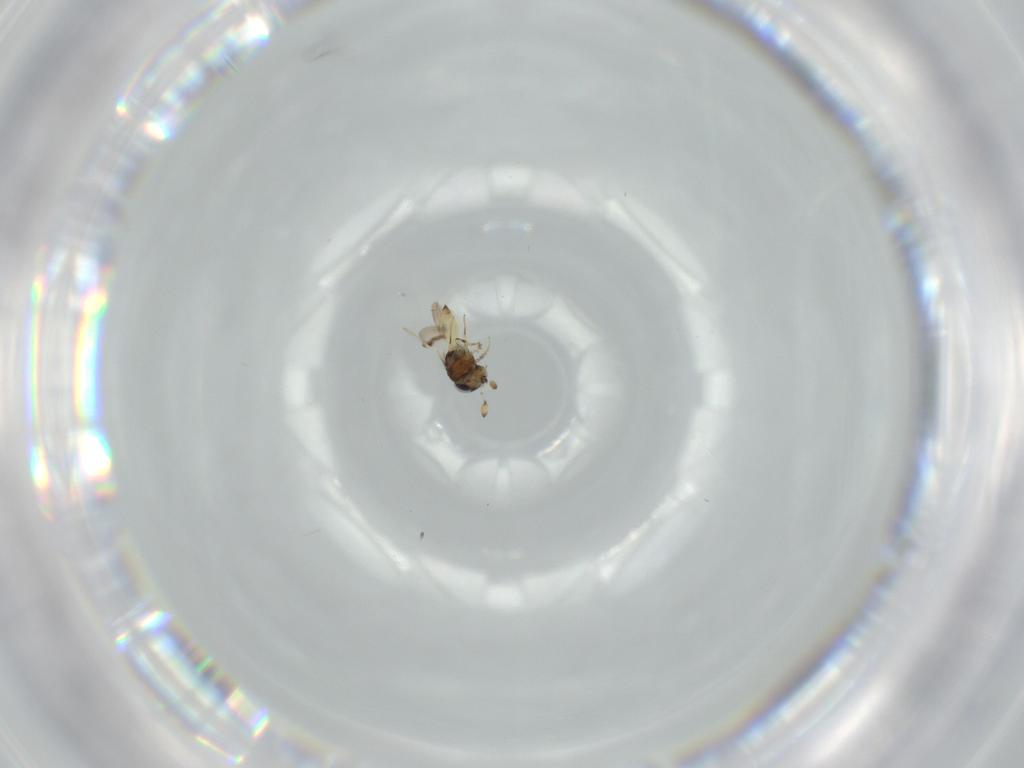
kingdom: Animalia
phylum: Arthropoda
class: Insecta
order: Hymenoptera
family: Scelionidae
